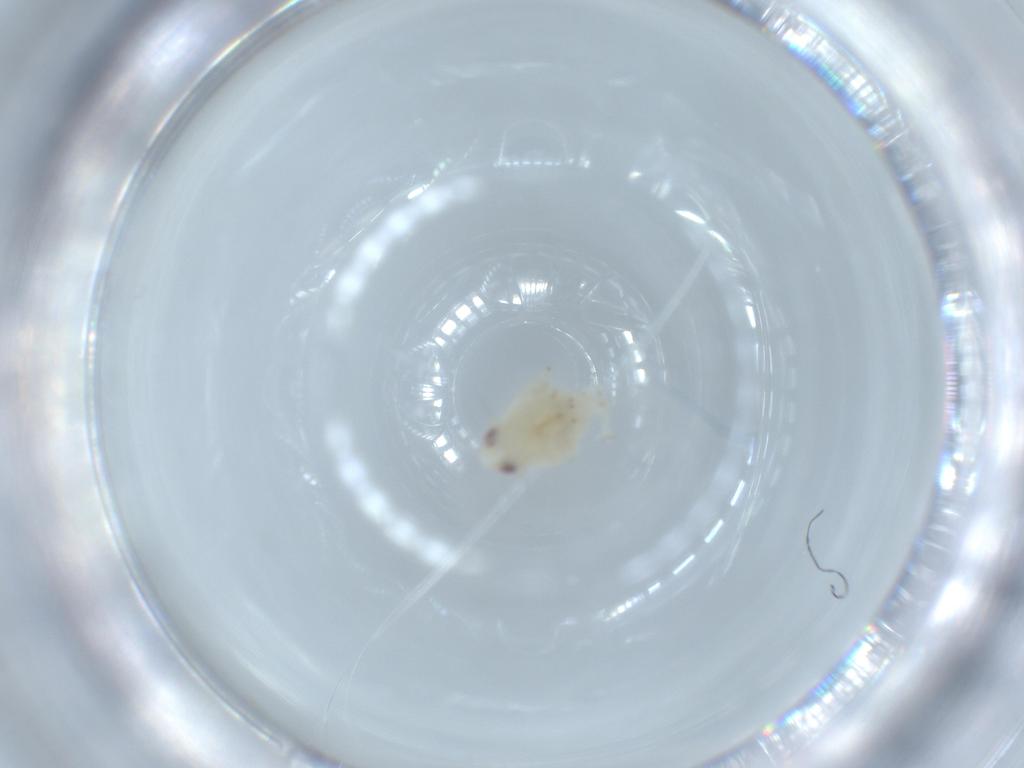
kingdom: Animalia
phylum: Arthropoda
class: Insecta
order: Hemiptera
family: Nogodinidae
